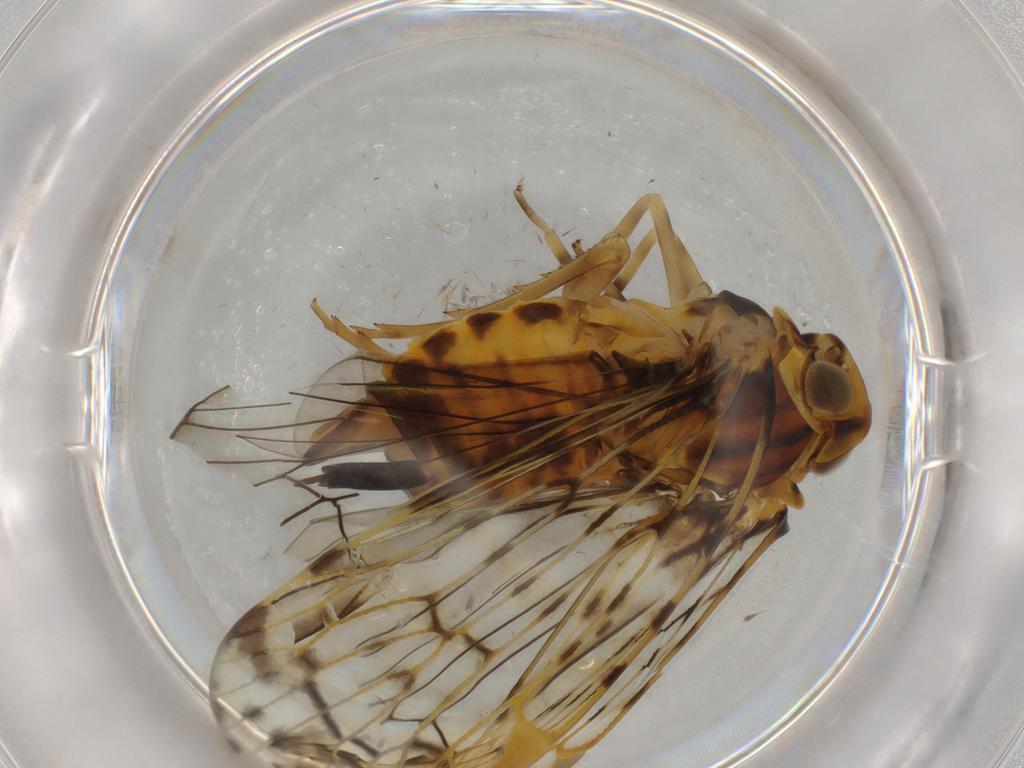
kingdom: Animalia
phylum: Arthropoda
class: Insecta
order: Hemiptera
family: Cixiidae
